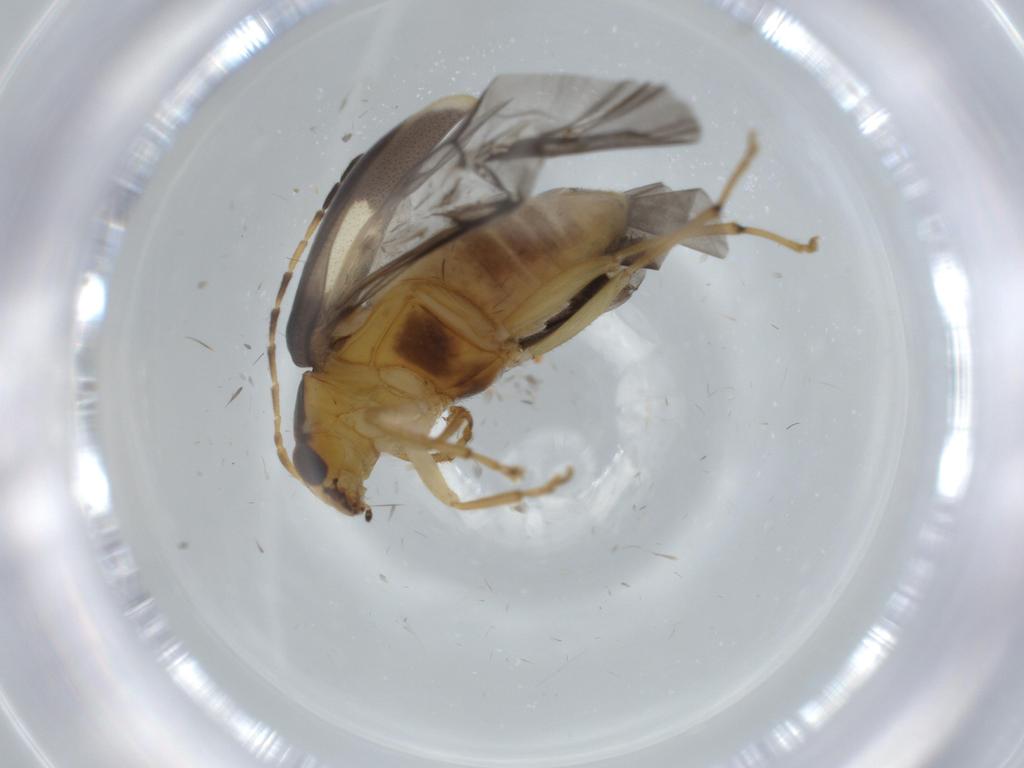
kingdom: Animalia
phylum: Arthropoda
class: Insecta
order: Coleoptera
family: Chrysomelidae
